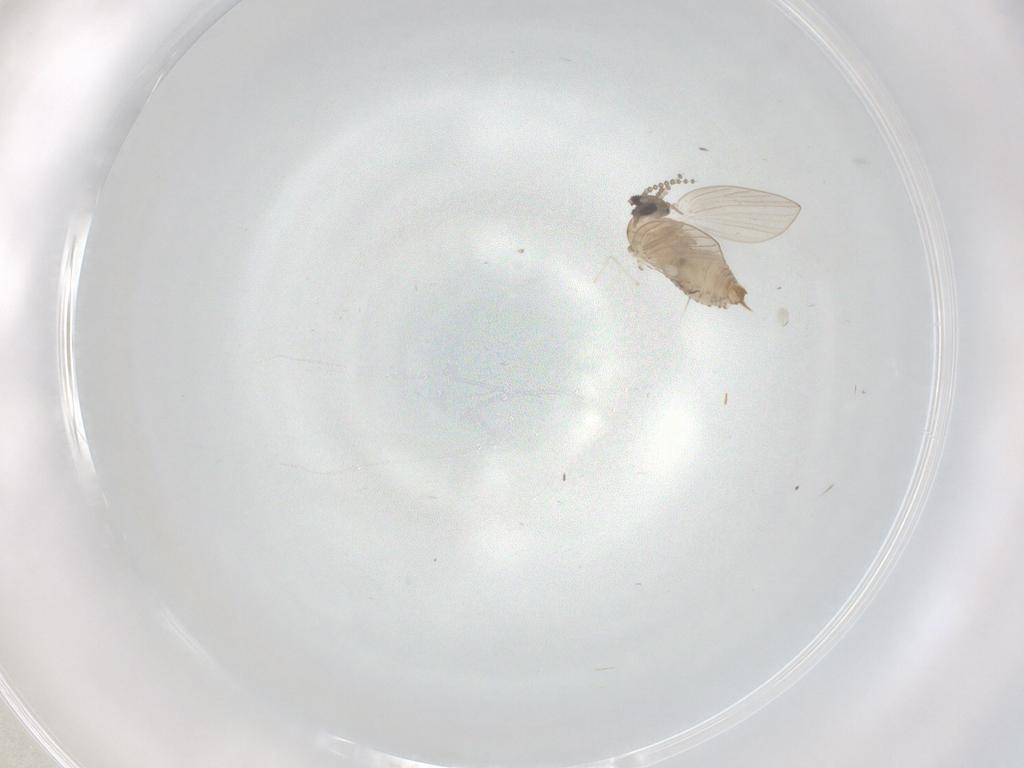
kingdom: Animalia
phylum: Arthropoda
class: Insecta
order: Diptera
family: Psychodidae
